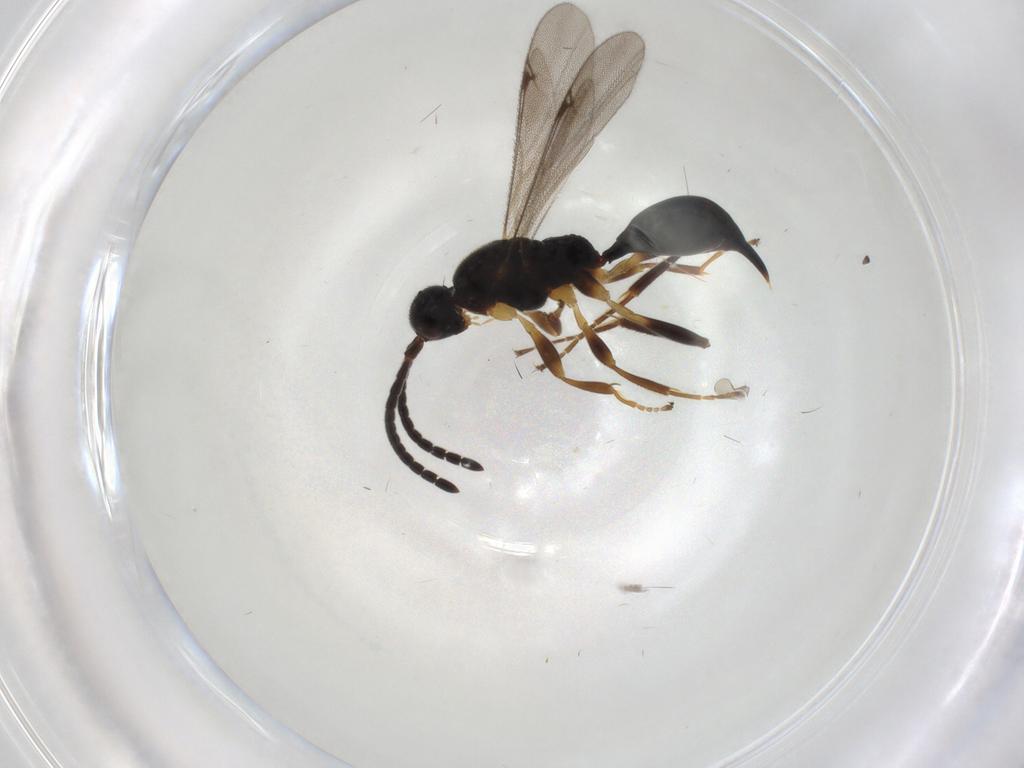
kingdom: Animalia
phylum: Arthropoda
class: Insecta
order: Hymenoptera
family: Proctotrupidae
